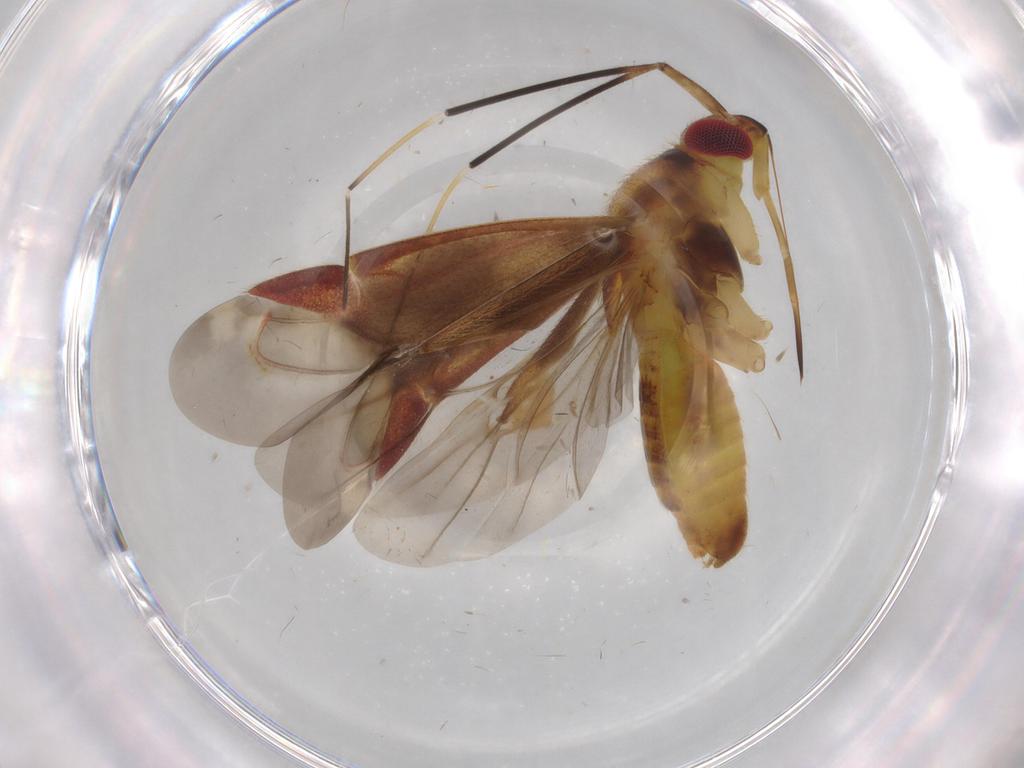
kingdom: Animalia
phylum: Arthropoda
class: Insecta
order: Hemiptera
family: Miridae
